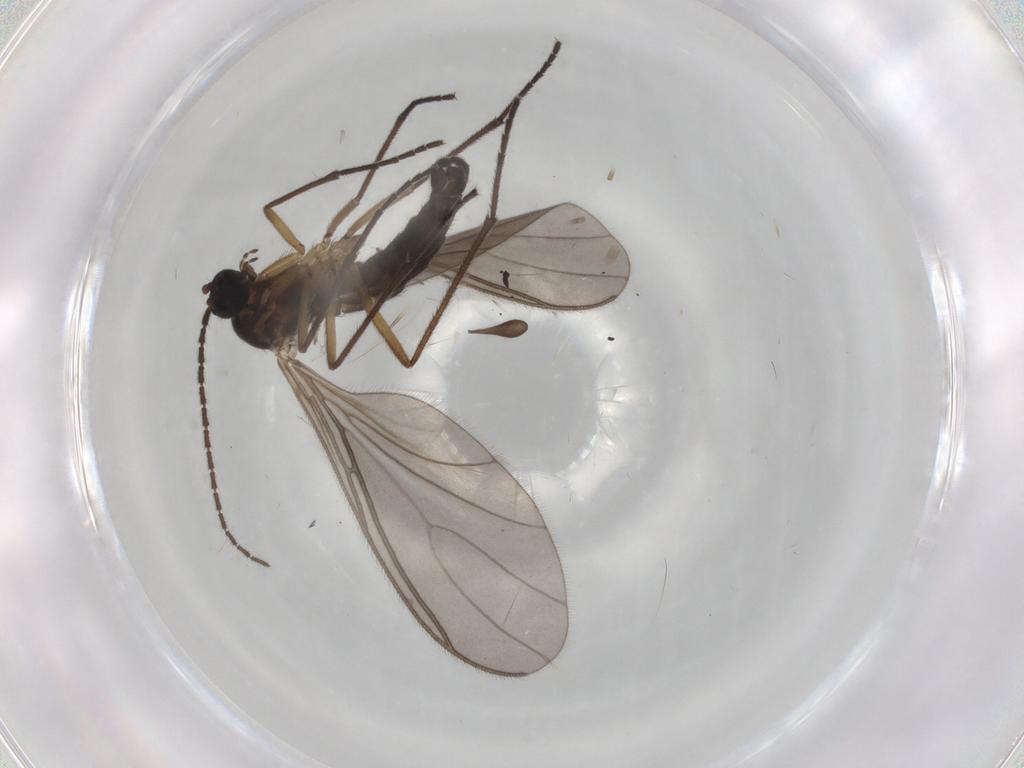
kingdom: Animalia
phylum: Arthropoda
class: Insecta
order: Diptera
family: Sciaridae
